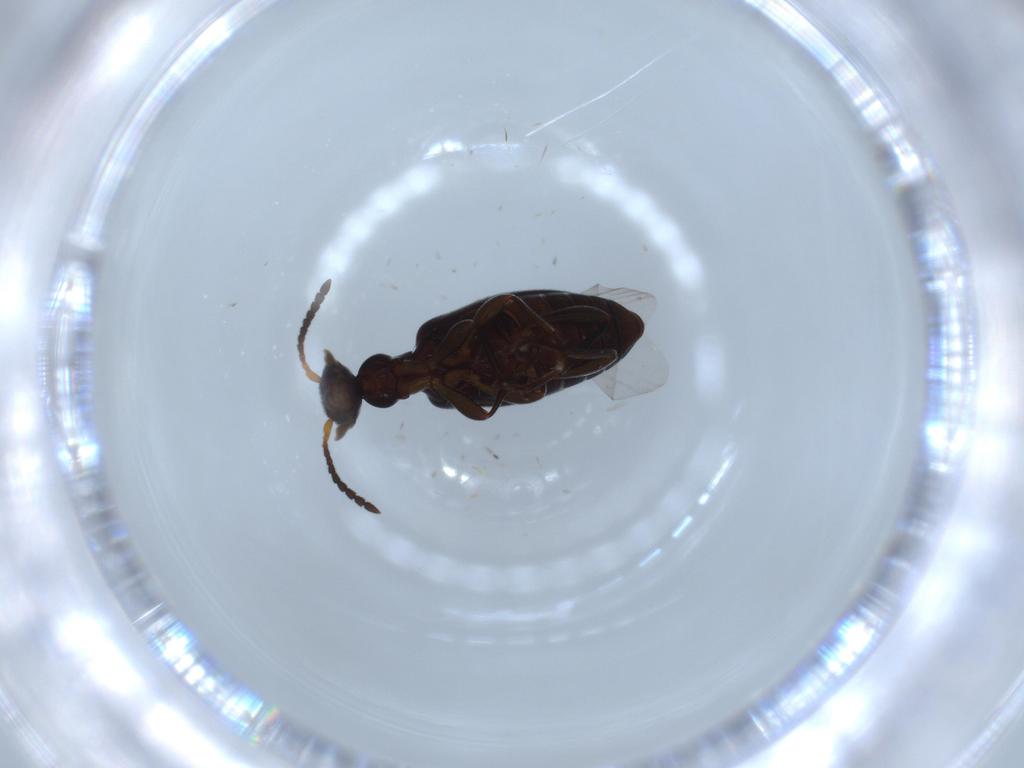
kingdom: Animalia
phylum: Arthropoda
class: Insecta
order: Coleoptera
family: Anthicidae
